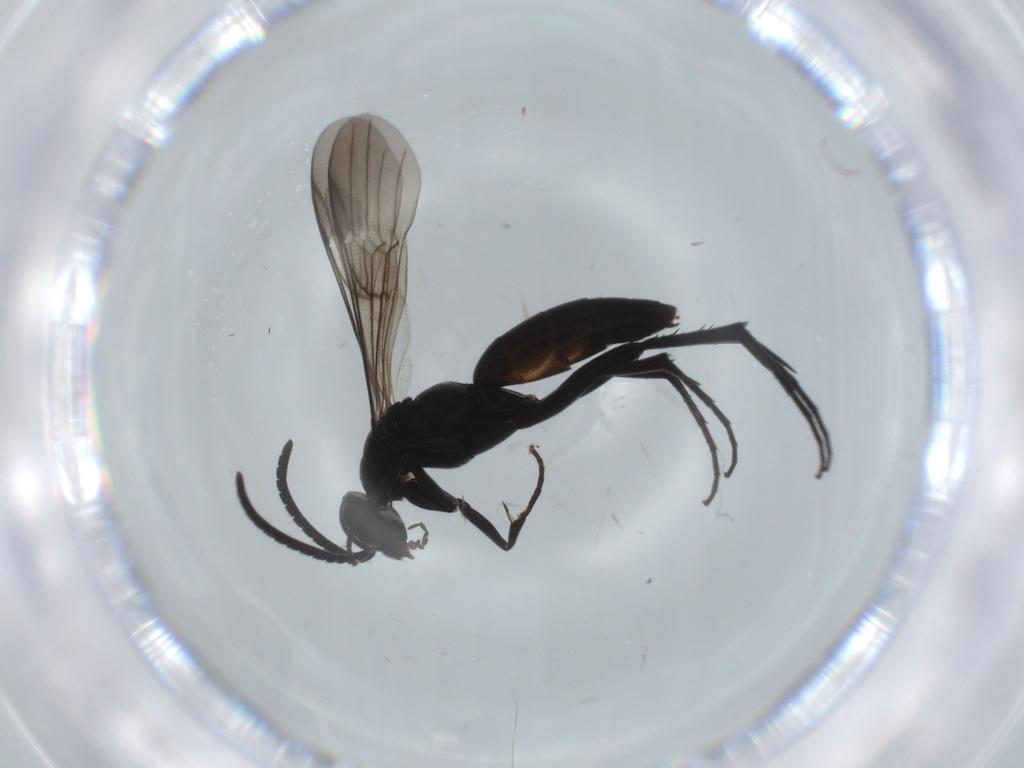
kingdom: Animalia
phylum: Arthropoda
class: Insecta
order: Hymenoptera
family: Pompilidae
